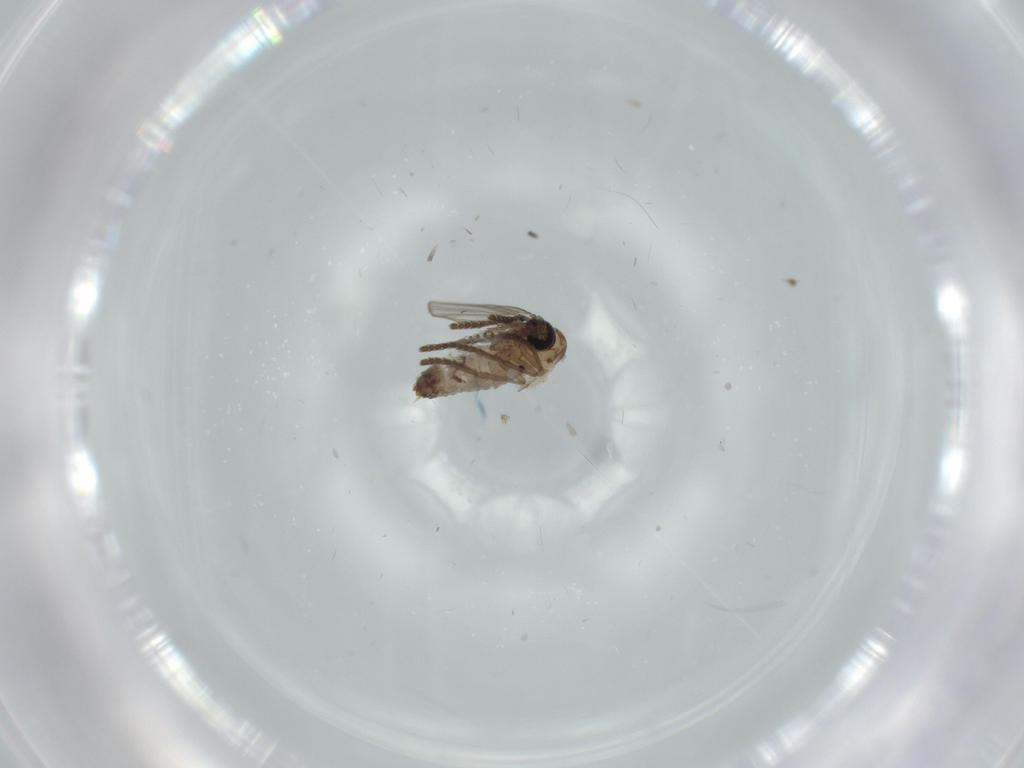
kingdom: Animalia
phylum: Arthropoda
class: Insecta
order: Diptera
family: Psychodidae
